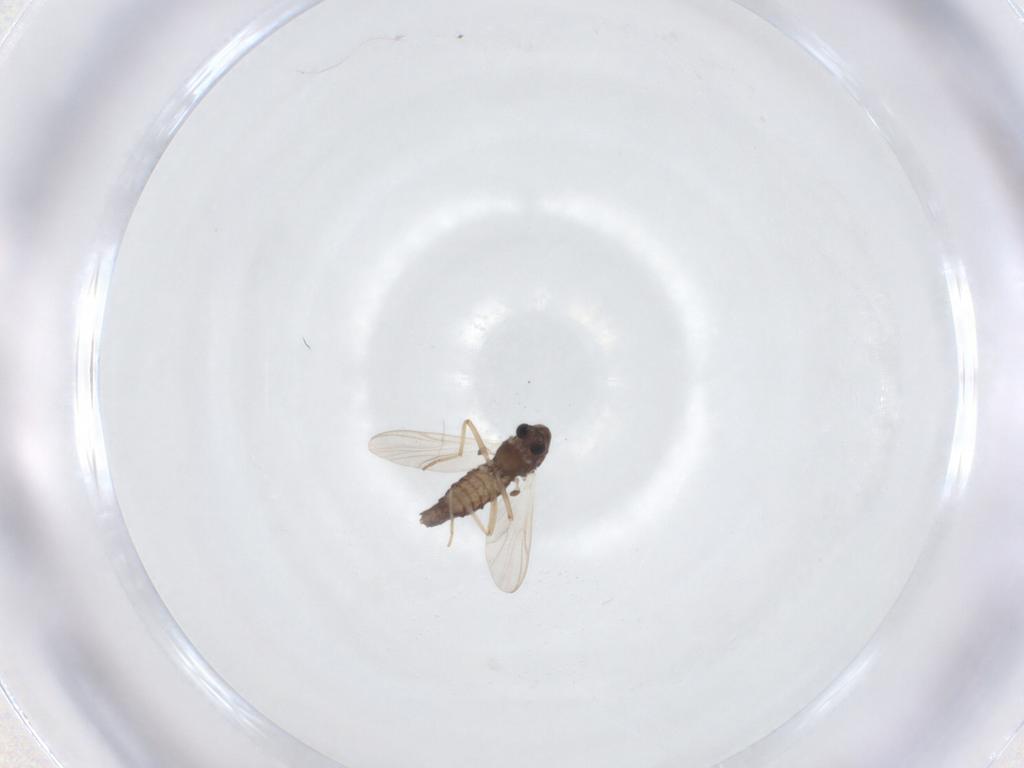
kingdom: Animalia
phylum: Arthropoda
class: Insecta
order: Diptera
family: Chironomidae
